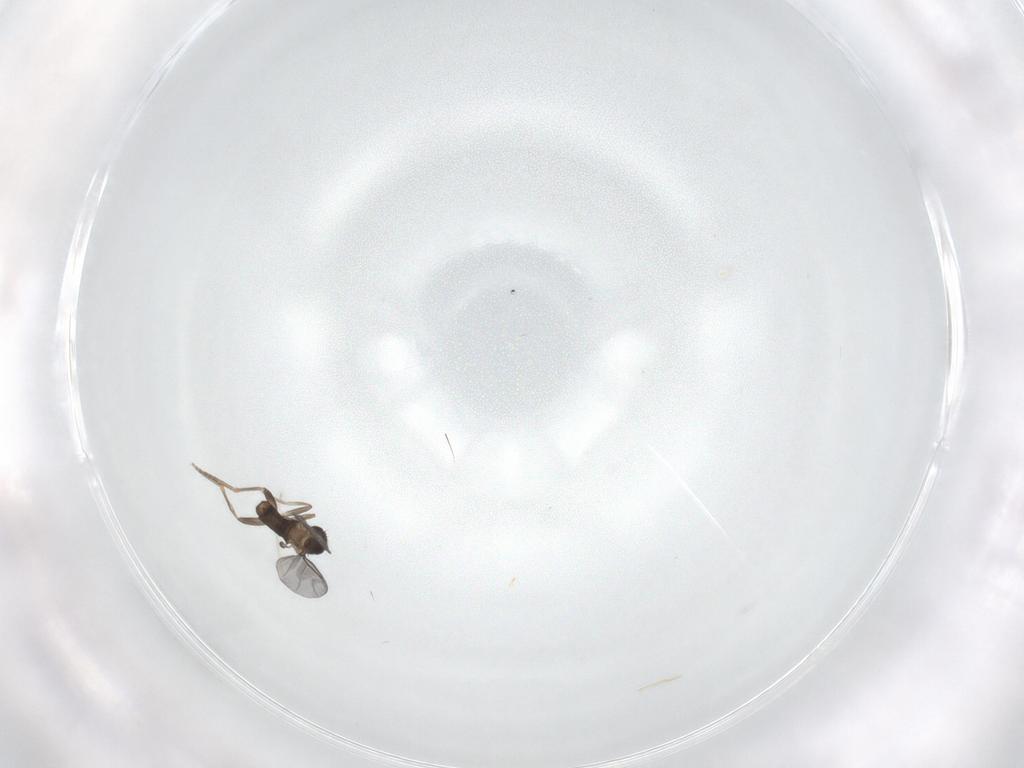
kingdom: Animalia
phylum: Arthropoda
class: Insecta
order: Diptera
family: Phoridae
